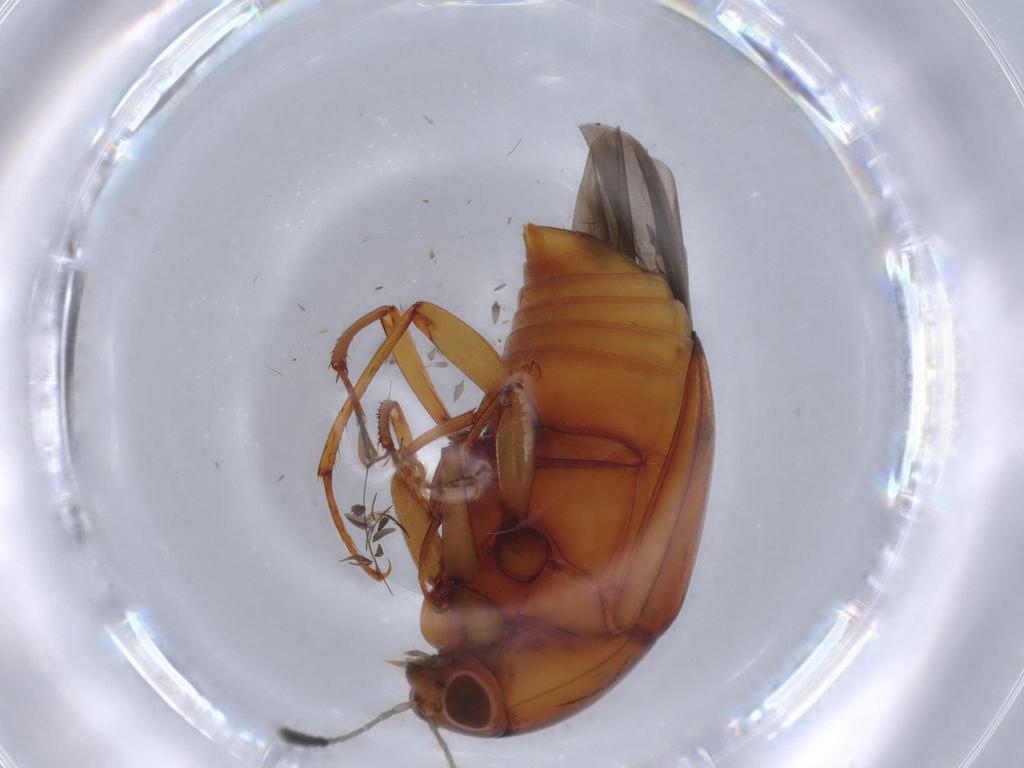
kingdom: Animalia
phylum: Arthropoda
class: Insecta
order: Coleoptera
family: Staphylinidae
